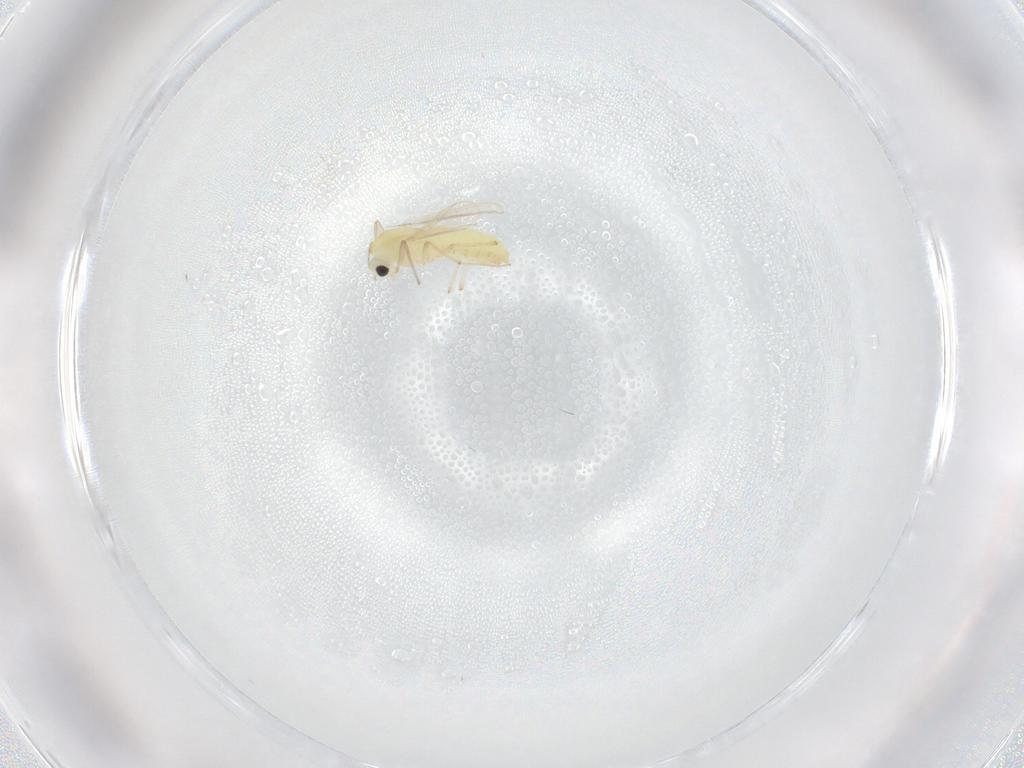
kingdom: Animalia
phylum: Arthropoda
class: Insecta
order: Diptera
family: Chironomidae
